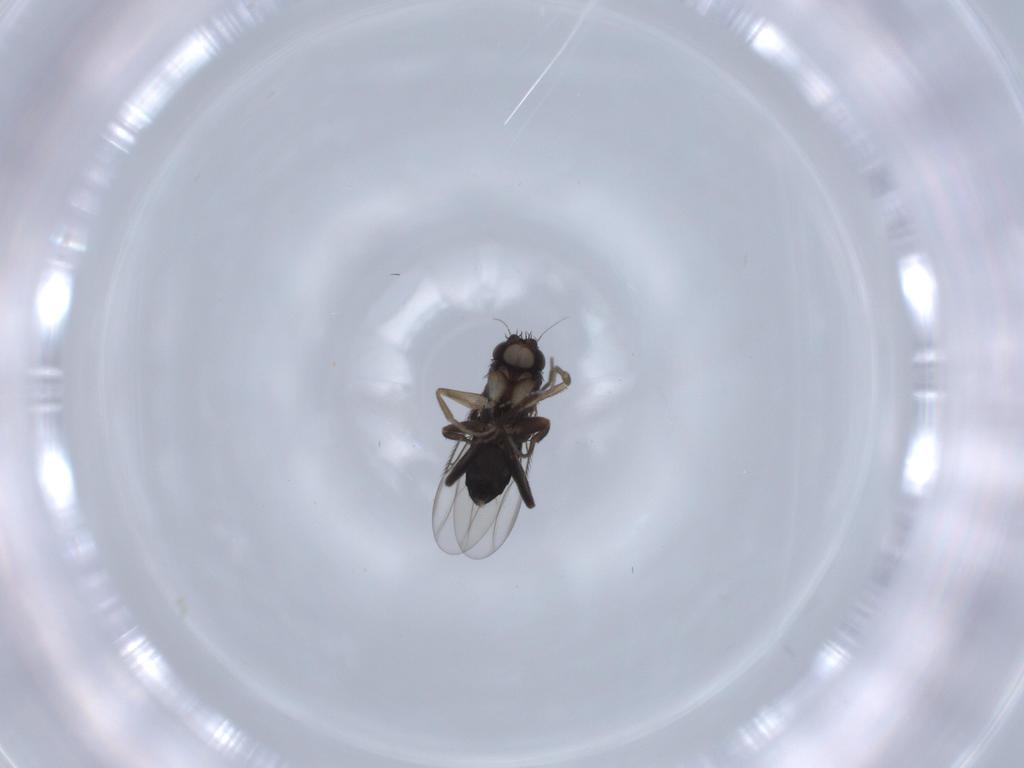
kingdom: Animalia
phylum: Arthropoda
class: Insecta
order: Diptera
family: Phoridae
